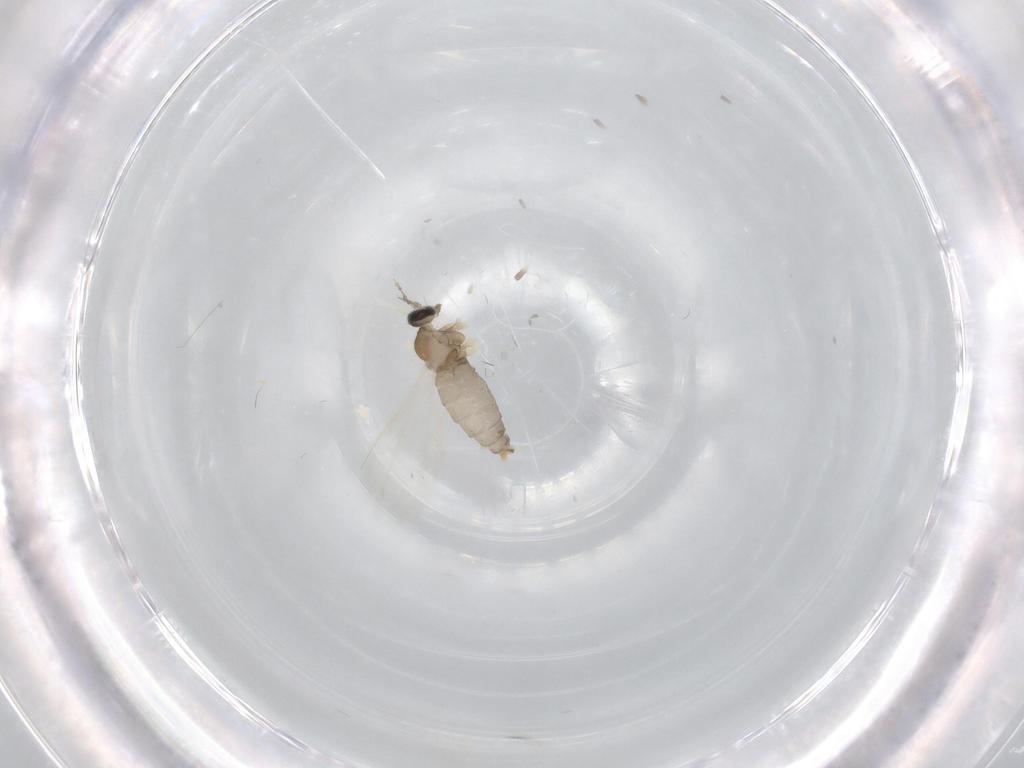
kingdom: Animalia
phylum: Arthropoda
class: Insecta
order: Diptera
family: Cecidomyiidae
